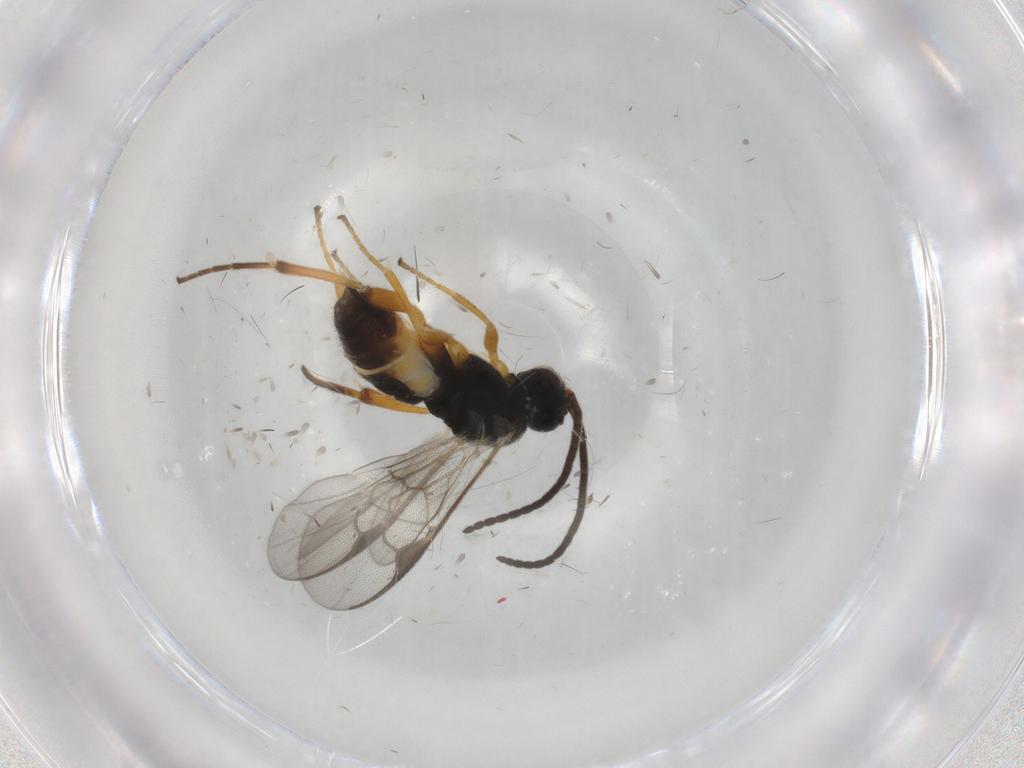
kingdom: Animalia
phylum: Arthropoda
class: Insecta
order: Hymenoptera
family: Braconidae
